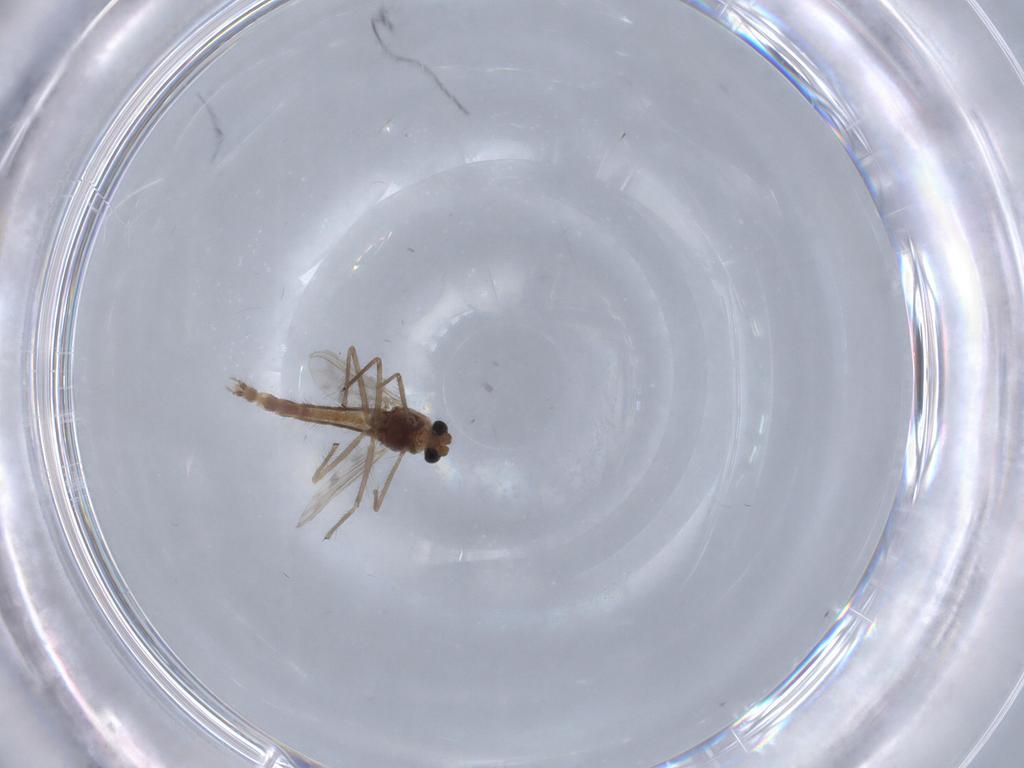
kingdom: Animalia
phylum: Arthropoda
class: Insecta
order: Diptera
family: Chironomidae
